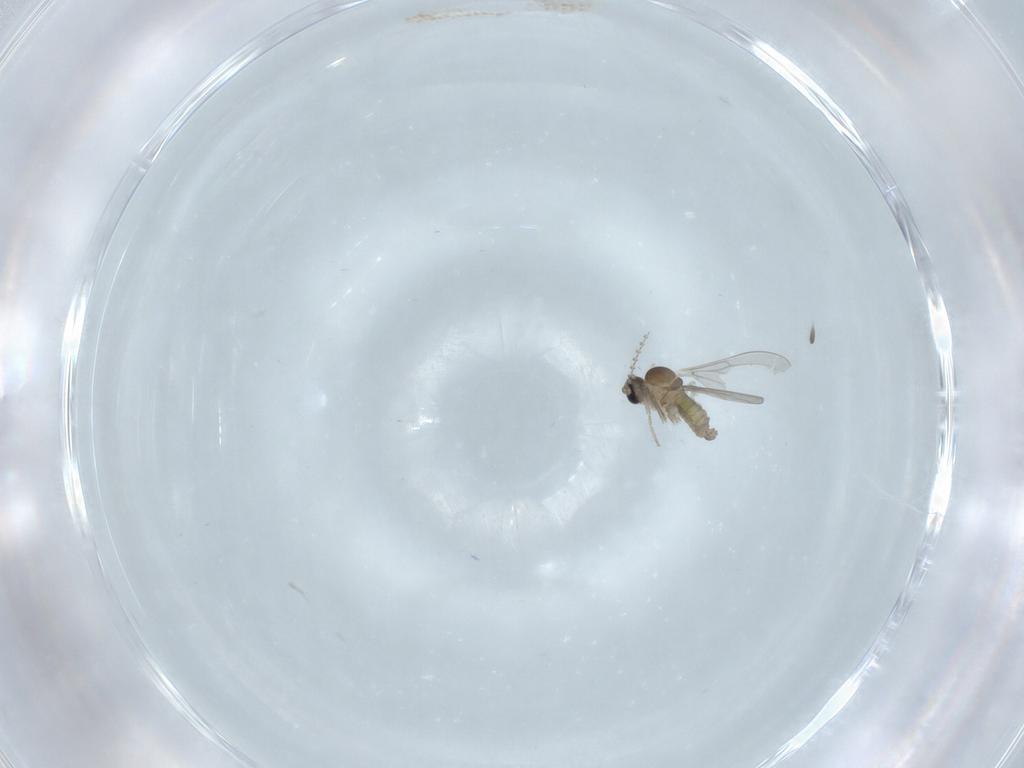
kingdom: Animalia
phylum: Arthropoda
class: Insecta
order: Diptera
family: Cecidomyiidae
